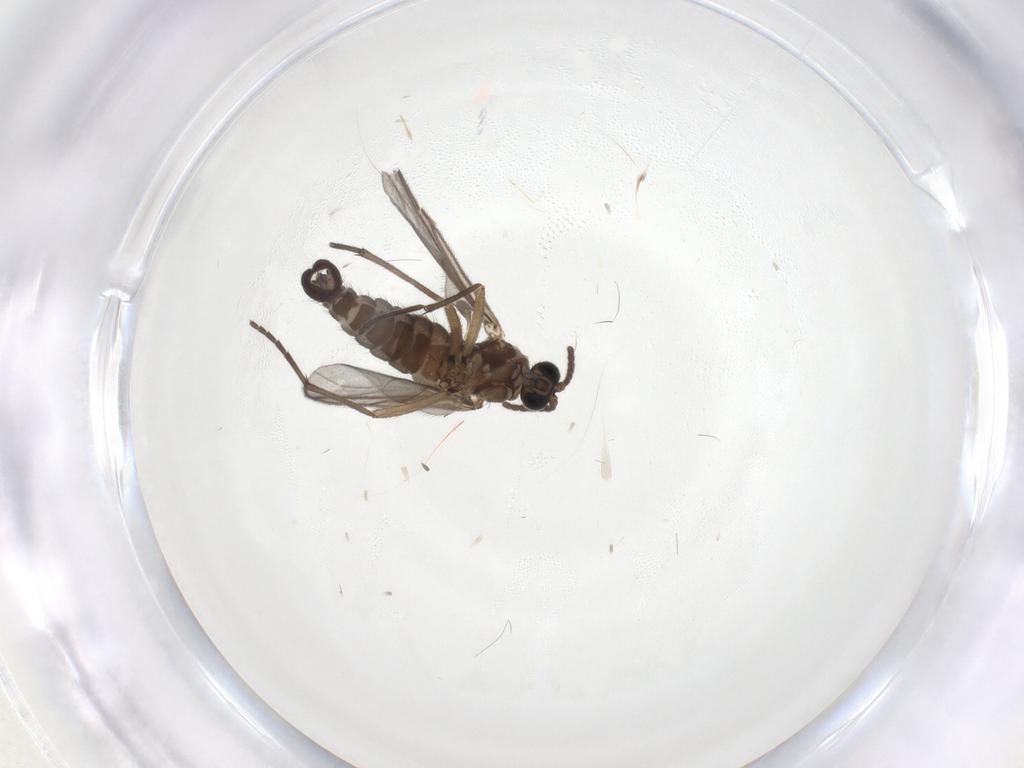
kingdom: Animalia
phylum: Arthropoda
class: Insecta
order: Diptera
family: Sciaridae
